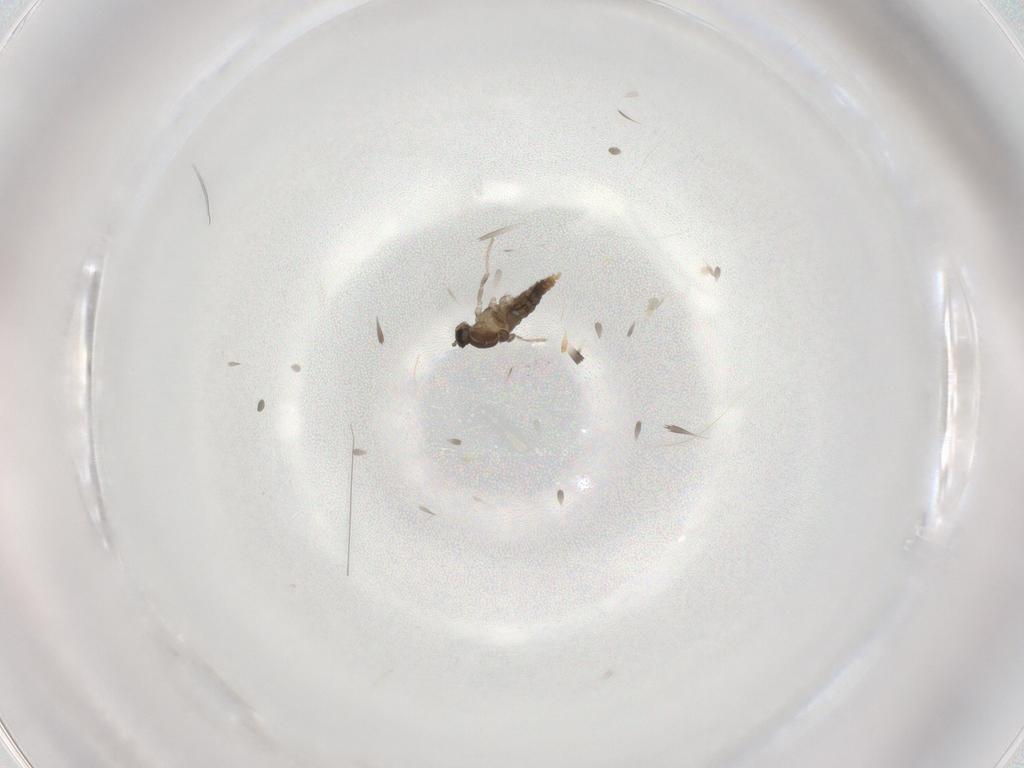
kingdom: Animalia
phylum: Arthropoda
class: Insecta
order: Diptera
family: Cecidomyiidae
